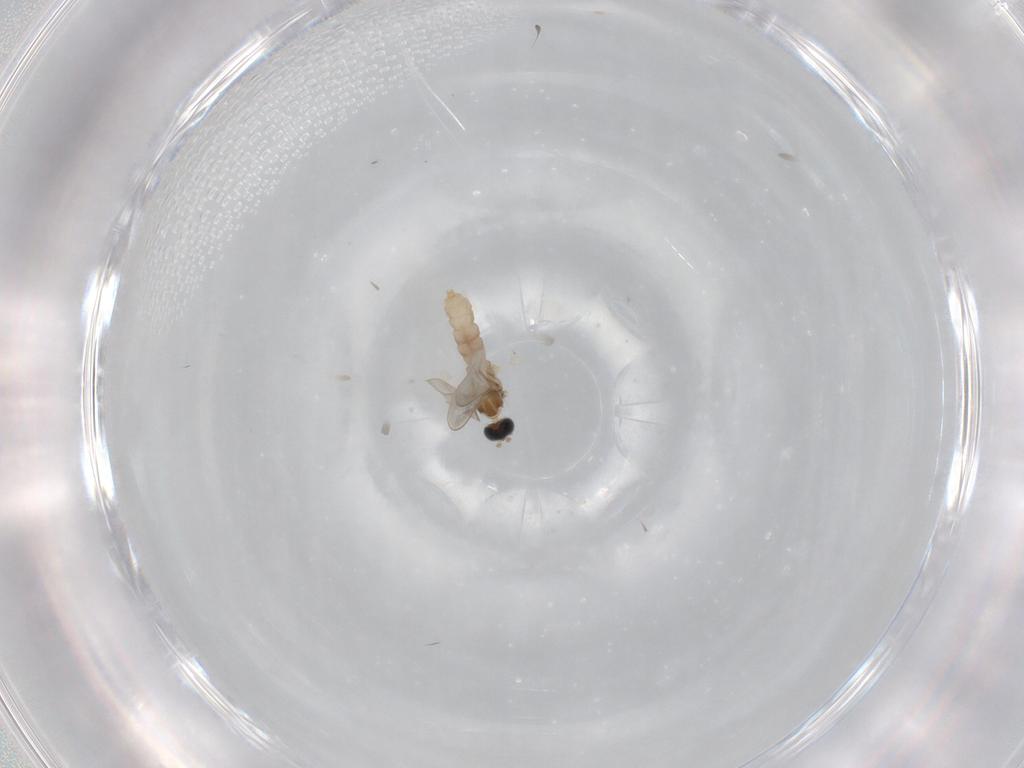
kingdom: Animalia
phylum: Arthropoda
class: Insecta
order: Diptera
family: Cecidomyiidae
